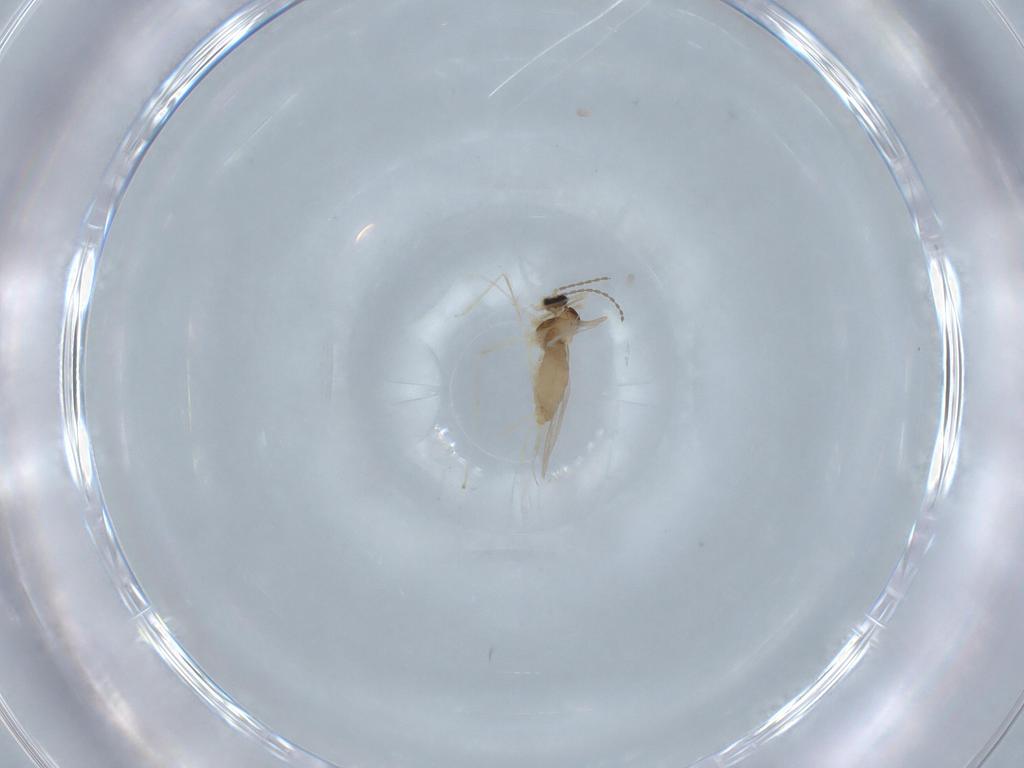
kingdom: Animalia
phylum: Arthropoda
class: Insecta
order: Diptera
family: Cecidomyiidae
